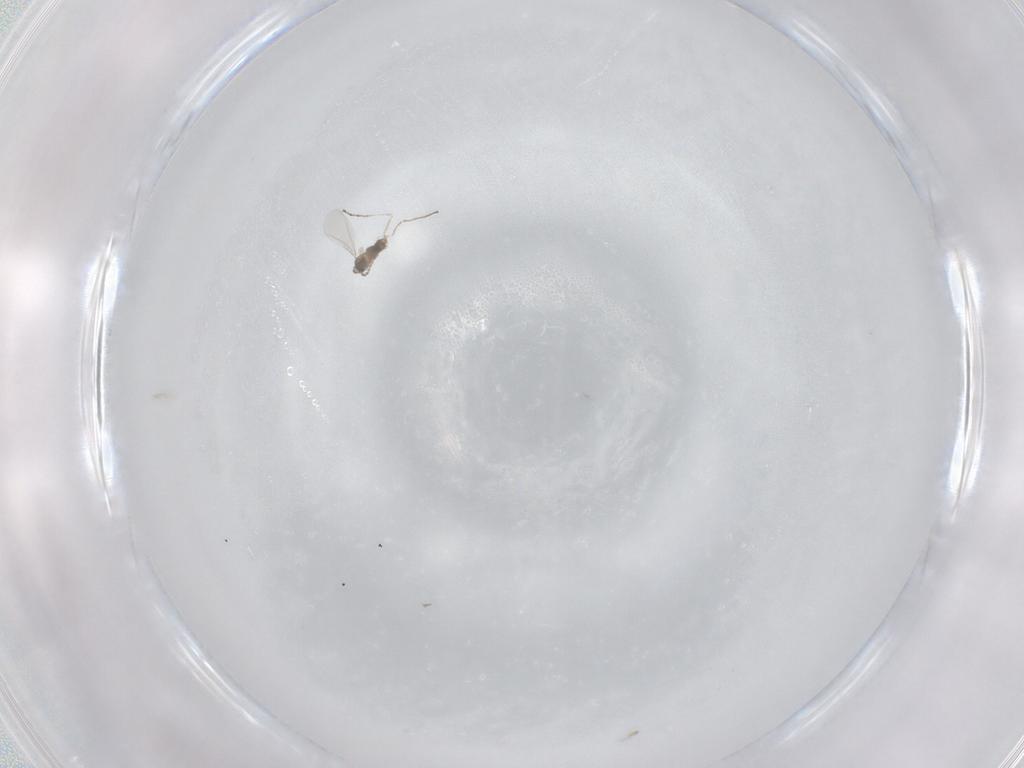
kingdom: Animalia
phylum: Arthropoda
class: Insecta
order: Diptera
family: Cecidomyiidae
